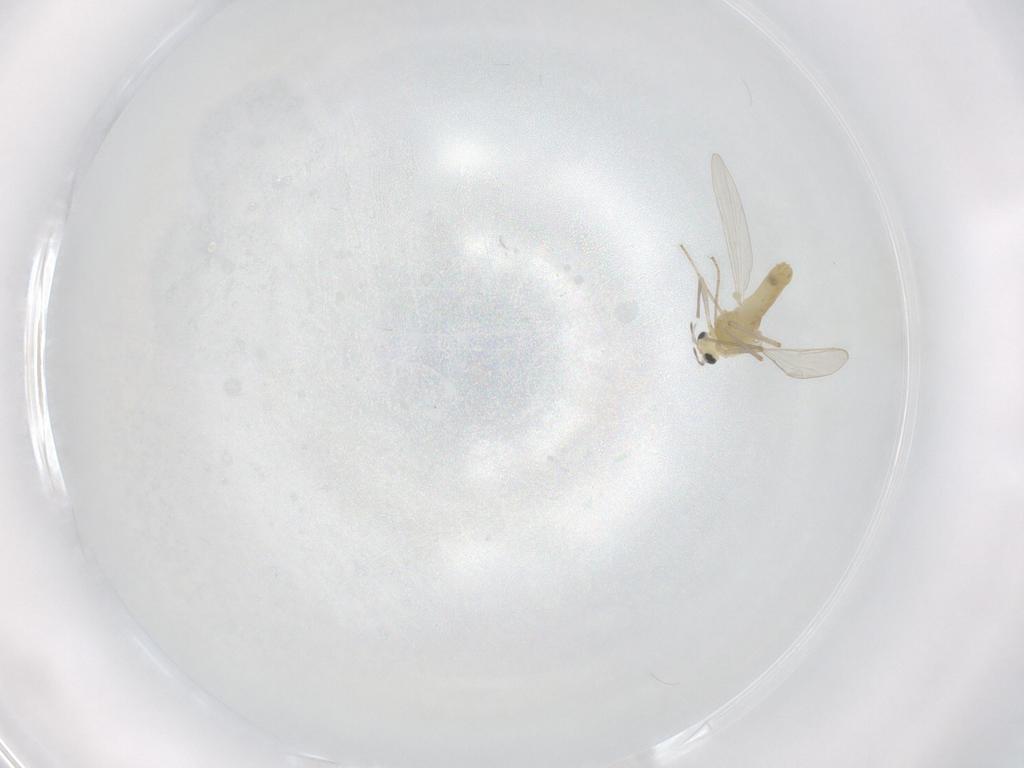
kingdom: Animalia
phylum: Arthropoda
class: Insecta
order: Diptera
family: Chironomidae
